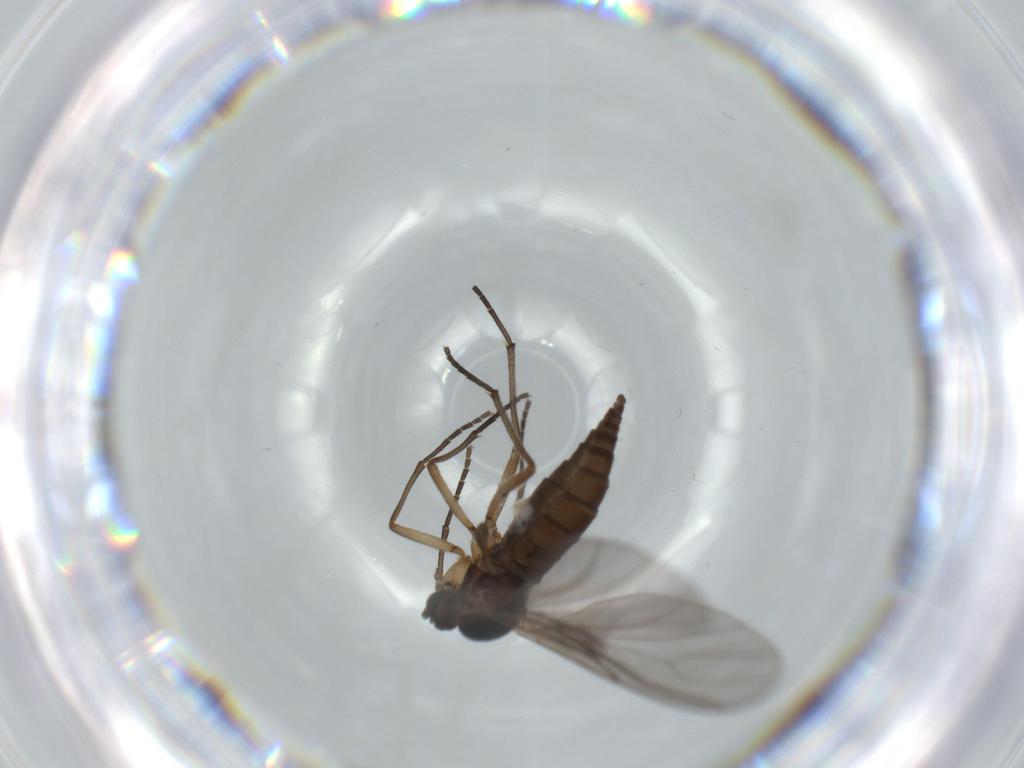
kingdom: Animalia
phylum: Arthropoda
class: Insecta
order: Diptera
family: Sciaridae
